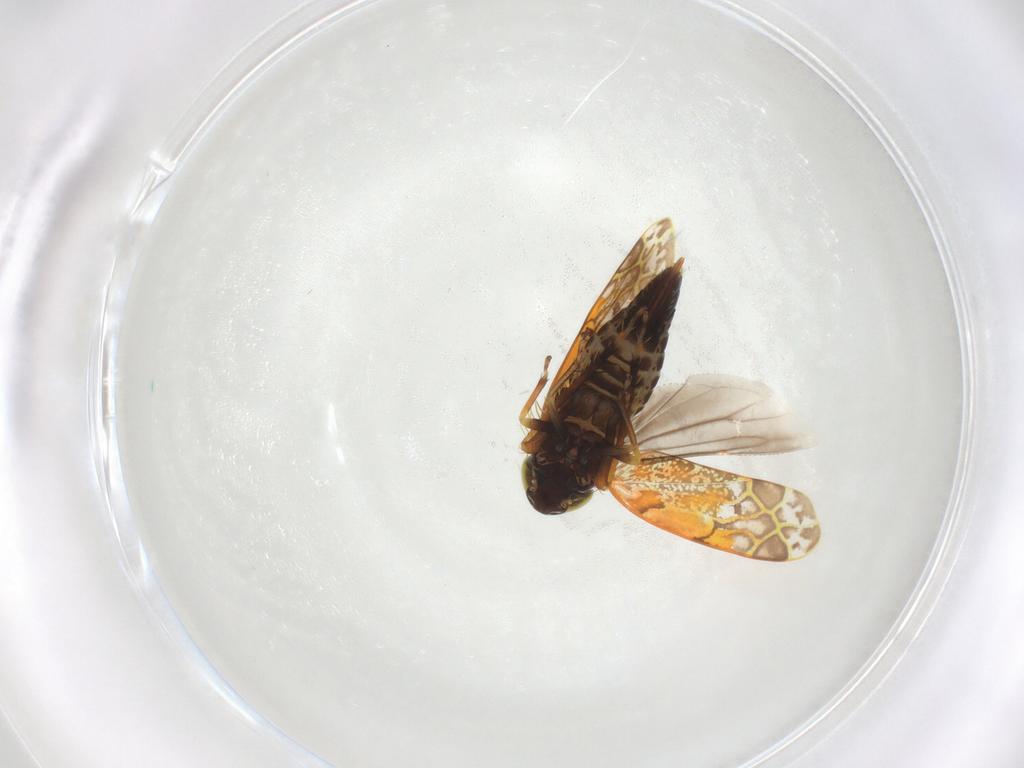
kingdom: Animalia
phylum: Arthropoda
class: Insecta
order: Hemiptera
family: Cicadellidae
